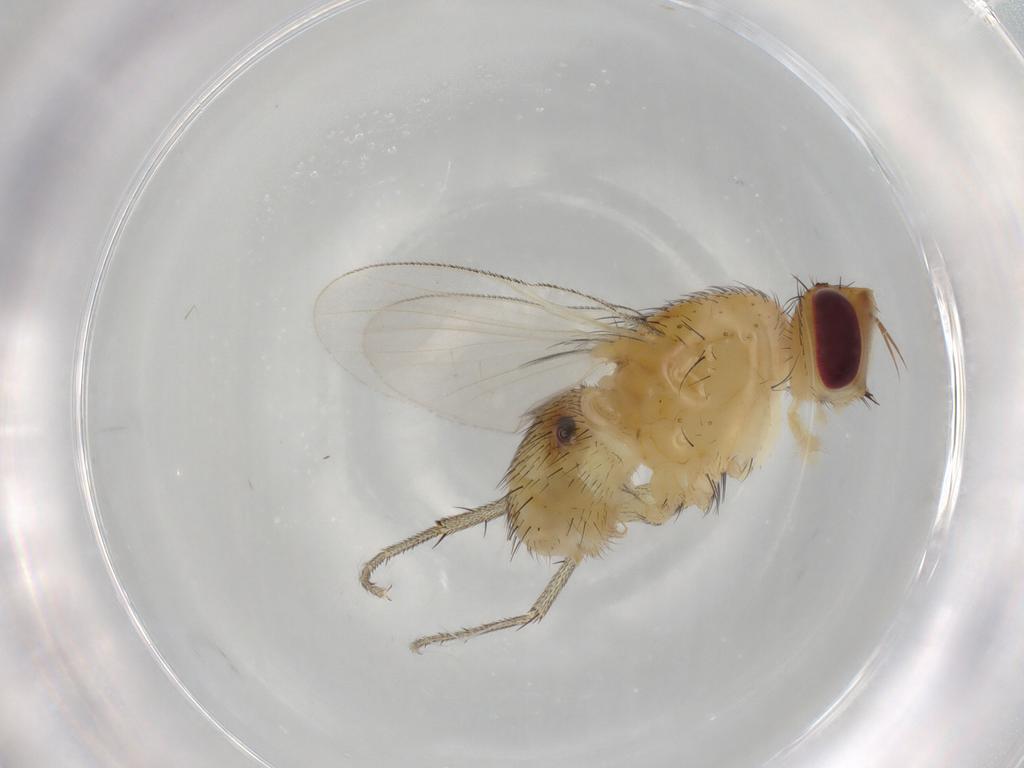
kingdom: Animalia
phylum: Arthropoda
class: Insecta
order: Diptera
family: Muscidae
